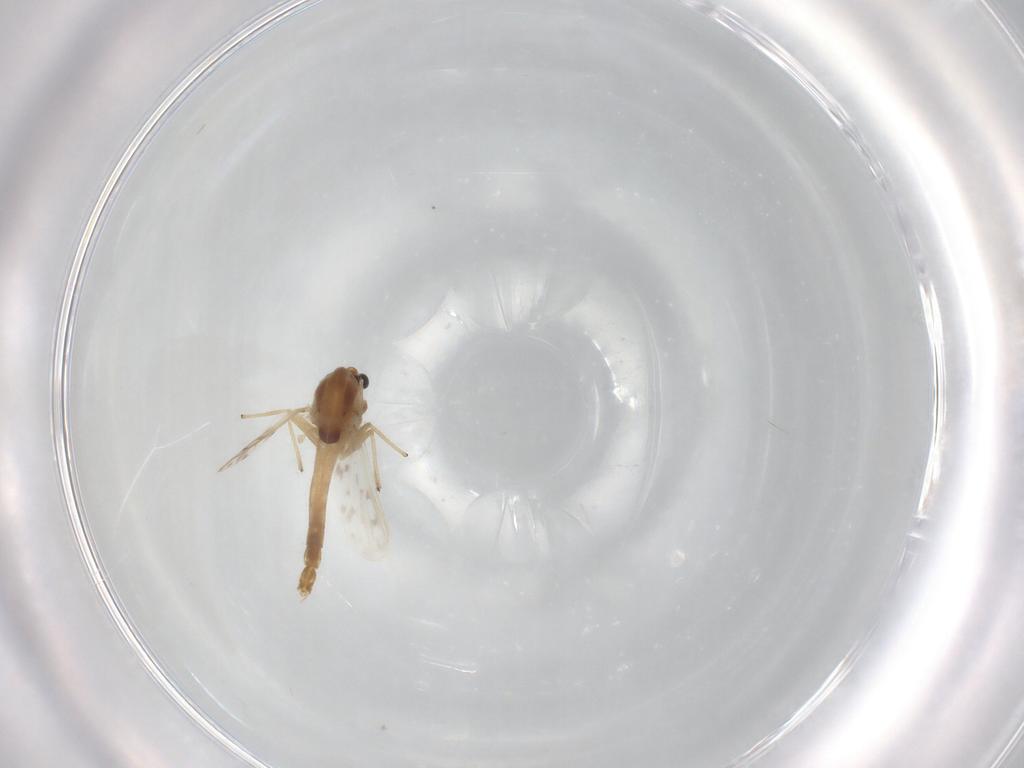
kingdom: Animalia
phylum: Arthropoda
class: Insecta
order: Diptera
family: Chironomidae
